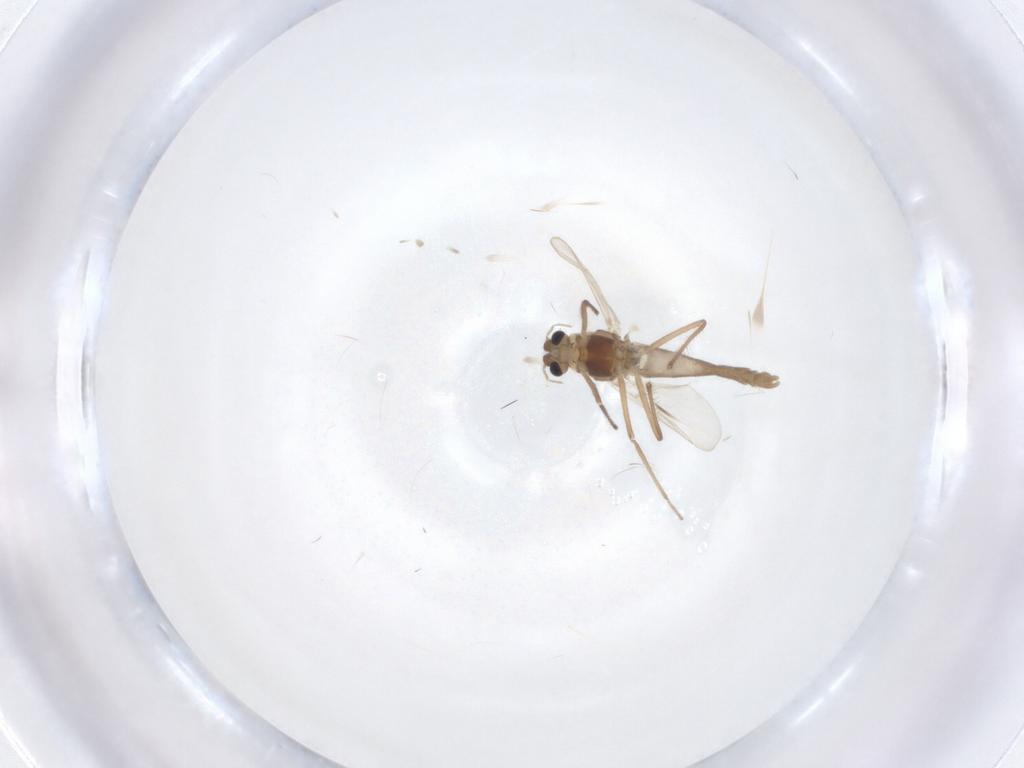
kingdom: Animalia
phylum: Arthropoda
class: Insecta
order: Diptera
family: Chironomidae
